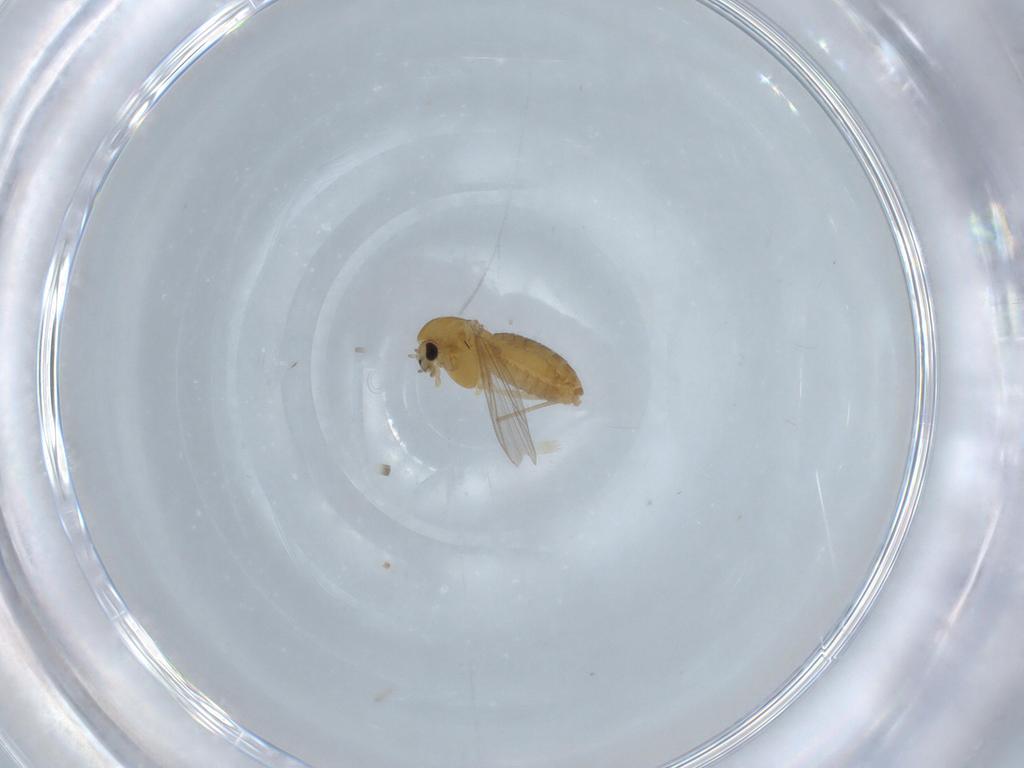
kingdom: Animalia
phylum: Arthropoda
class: Insecta
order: Diptera
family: Chironomidae
